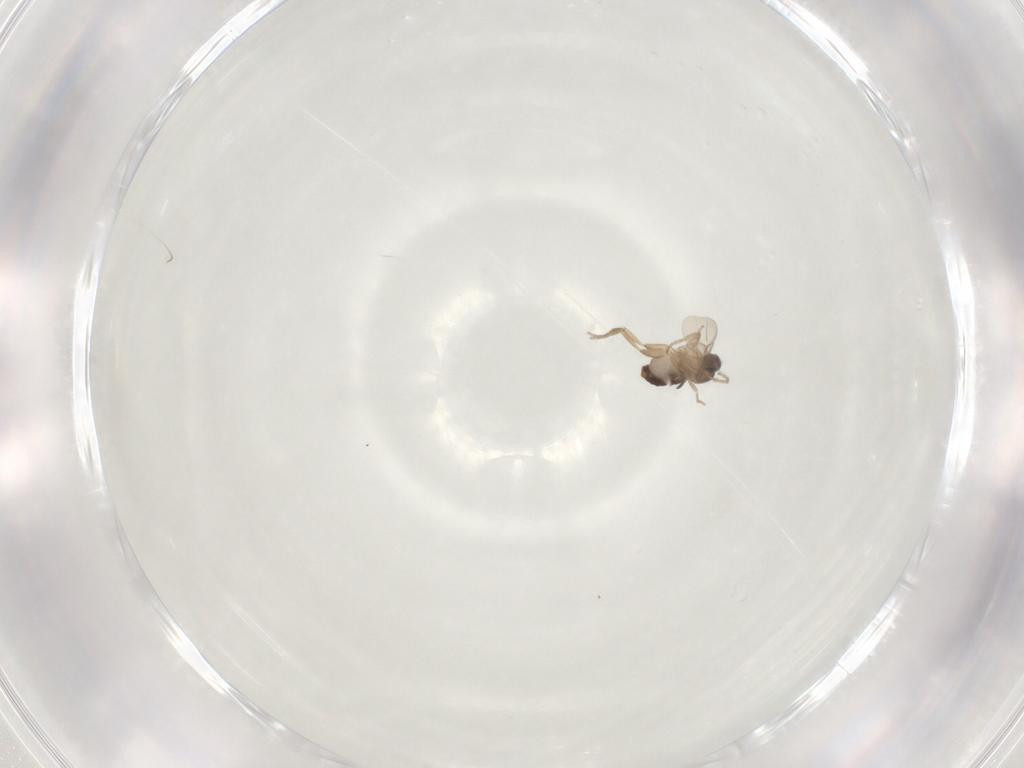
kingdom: Animalia
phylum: Arthropoda
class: Insecta
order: Diptera
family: Phoridae
